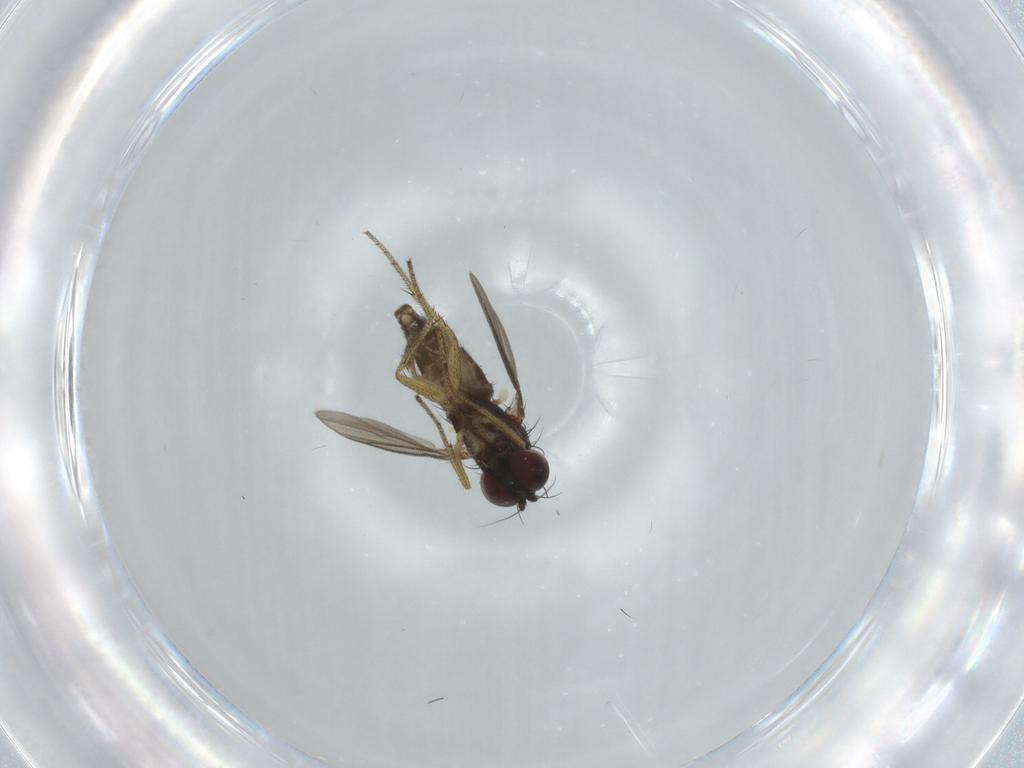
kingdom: Animalia
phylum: Arthropoda
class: Insecta
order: Diptera
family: Dolichopodidae
